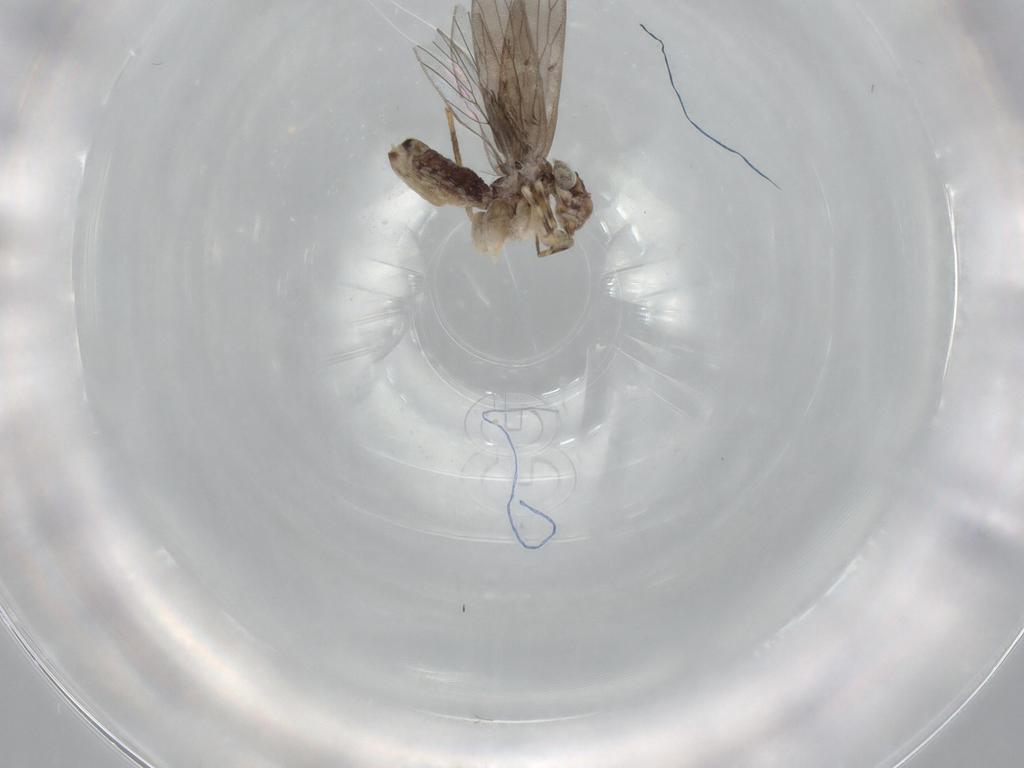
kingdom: Animalia
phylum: Arthropoda
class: Insecta
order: Psocodea
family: Lepidopsocidae
